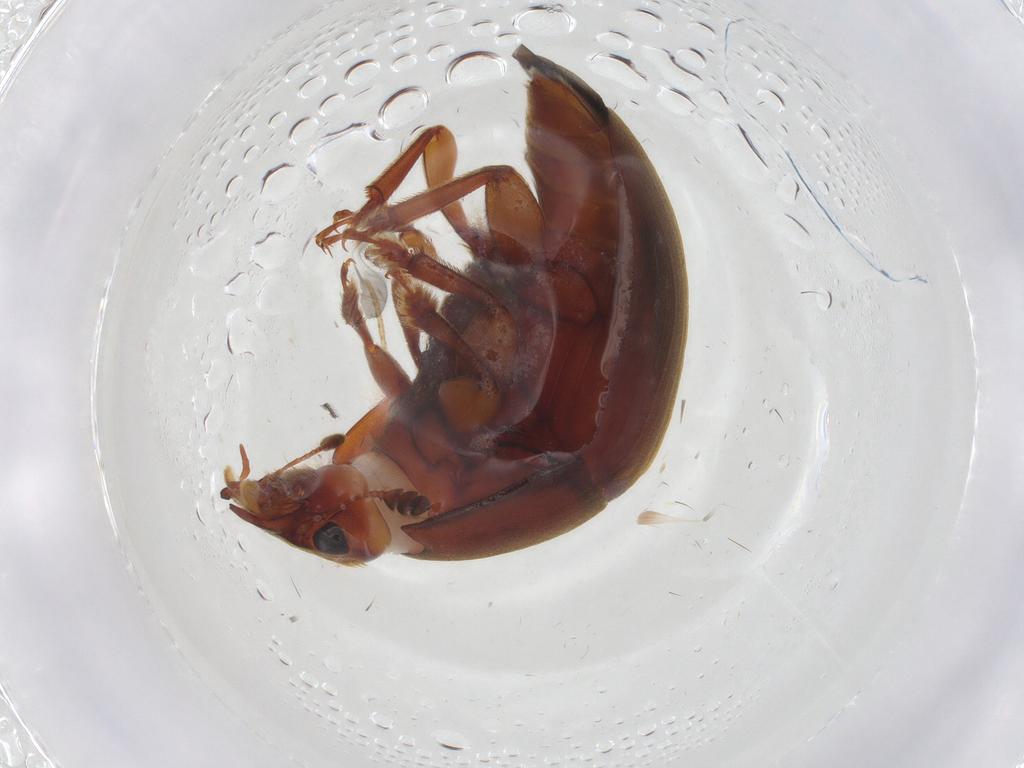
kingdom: Animalia
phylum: Arthropoda
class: Insecta
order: Coleoptera
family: Nitidulidae
